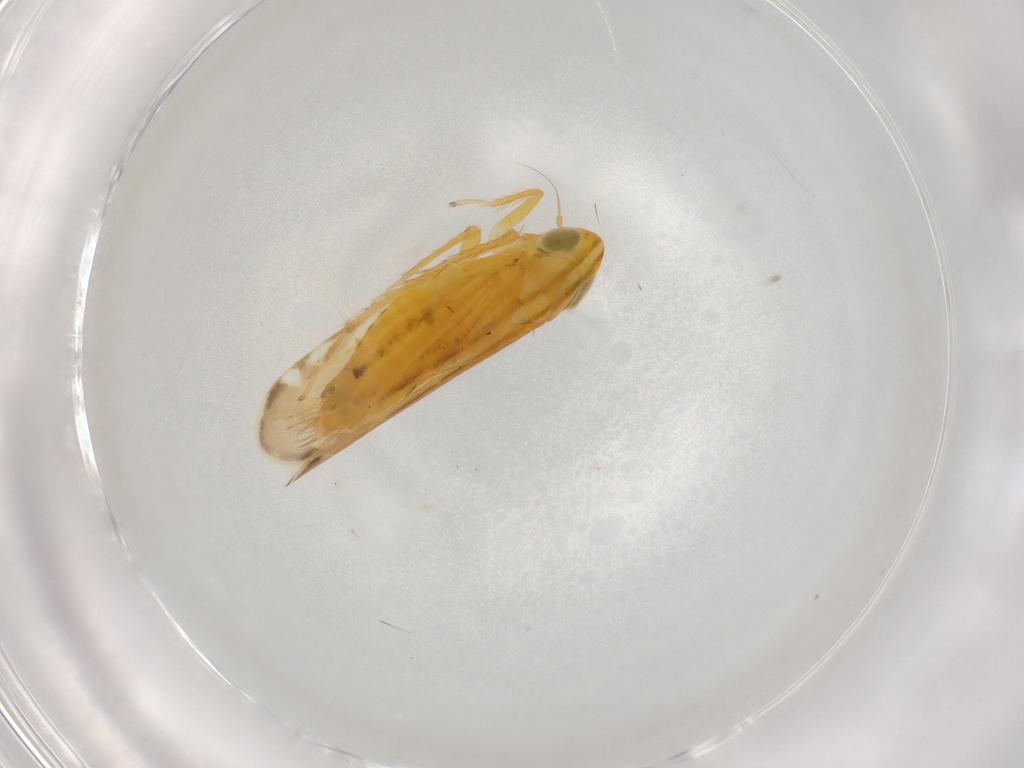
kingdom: Animalia
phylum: Arthropoda
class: Insecta
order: Hemiptera
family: Cicadellidae
